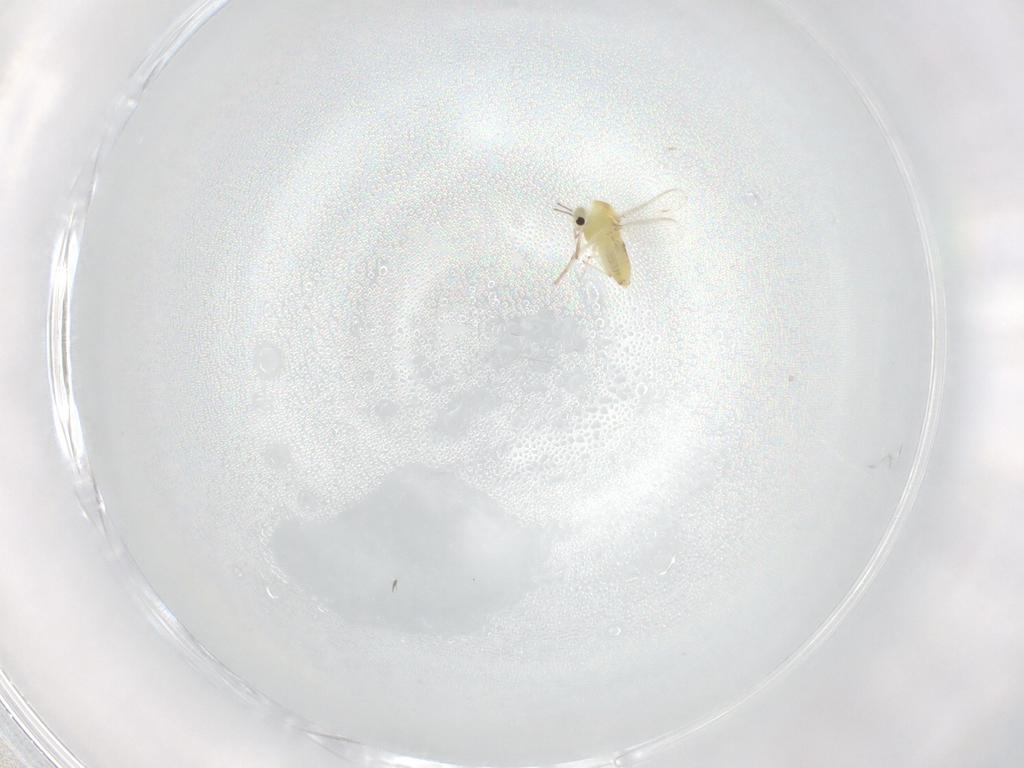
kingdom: Animalia
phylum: Arthropoda
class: Insecta
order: Diptera
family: Chironomidae
